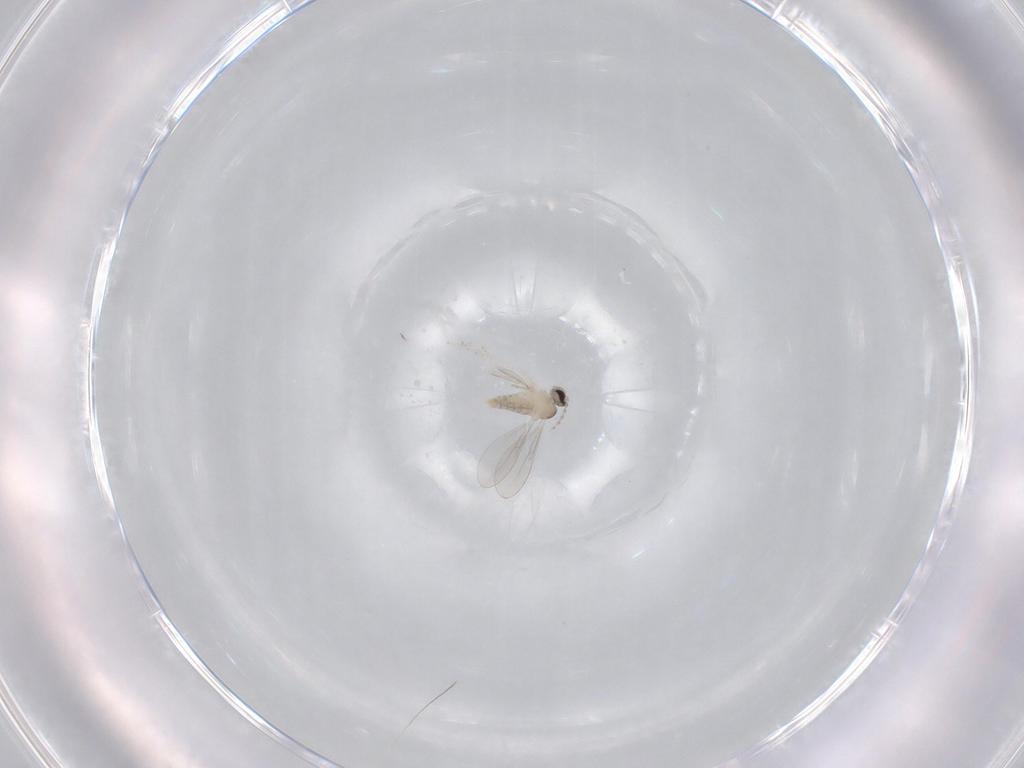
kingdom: Animalia
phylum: Arthropoda
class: Insecta
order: Diptera
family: Cecidomyiidae
